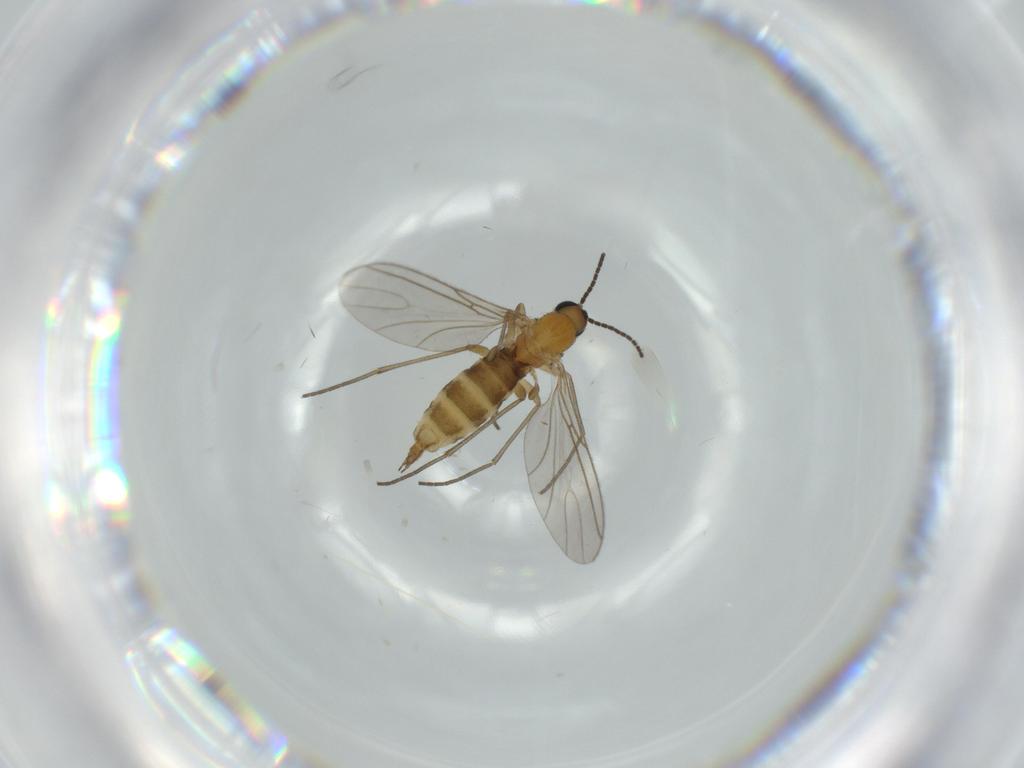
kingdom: Animalia
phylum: Arthropoda
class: Insecta
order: Diptera
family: Sciaridae
